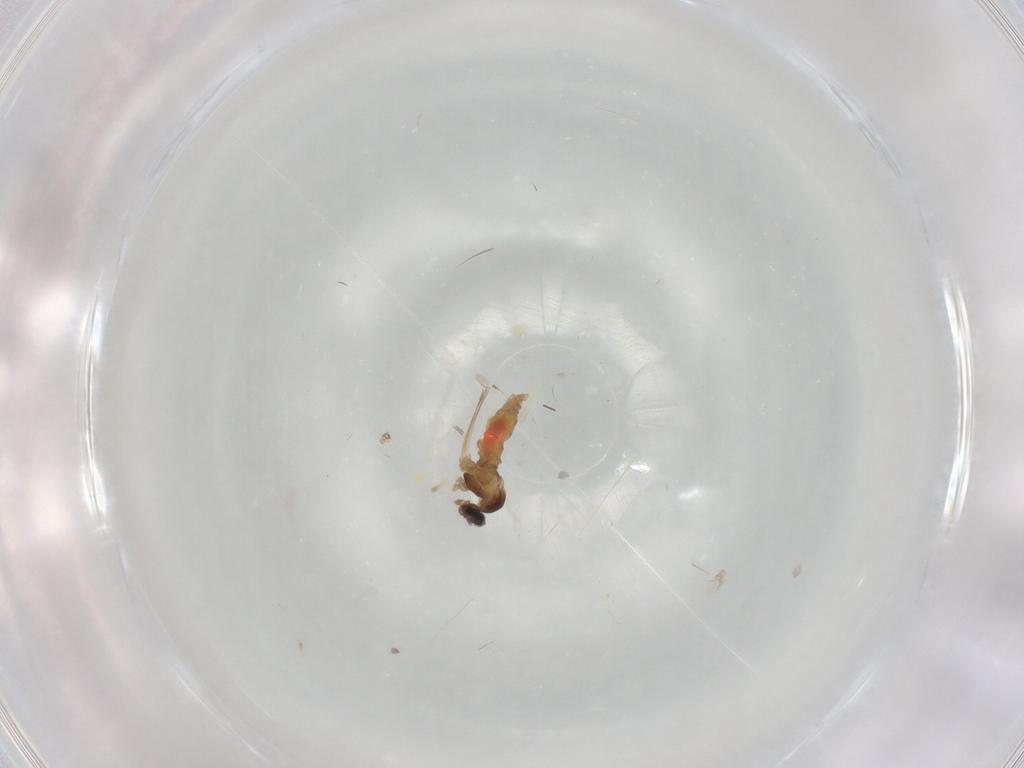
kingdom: Animalia
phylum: Arthropoda
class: Insecta
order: Diptera
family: Cecidomyiidae
